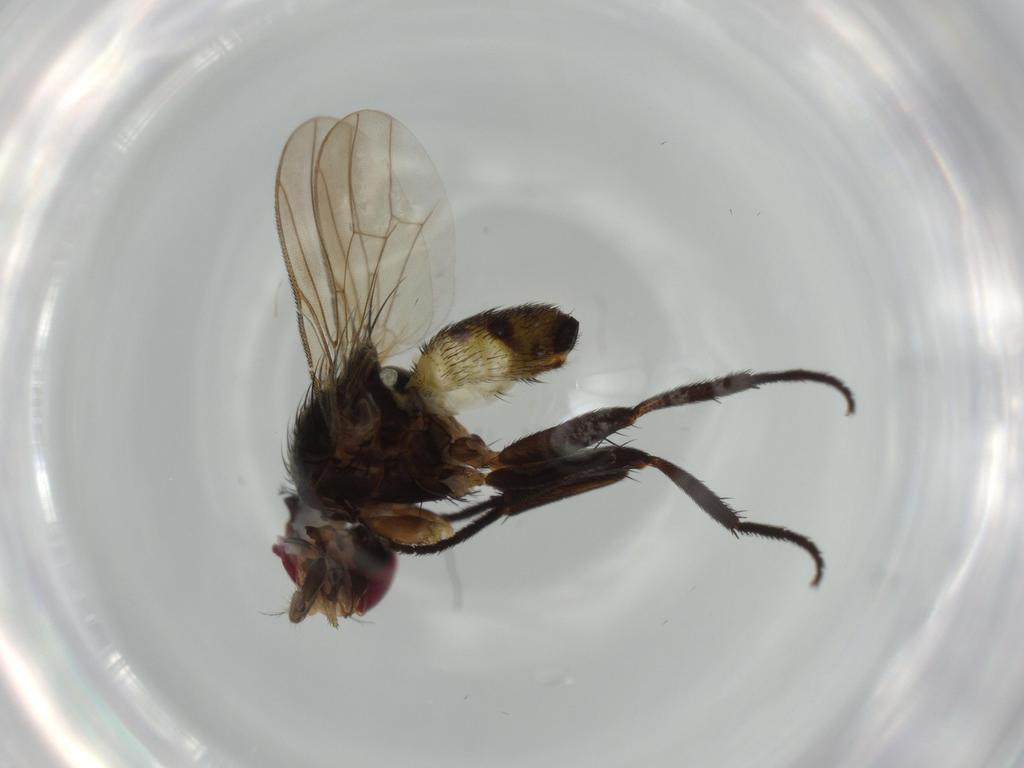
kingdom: Animalia
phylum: Arthropoda
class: Insecta
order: Diptera
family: Anthomyiidae
